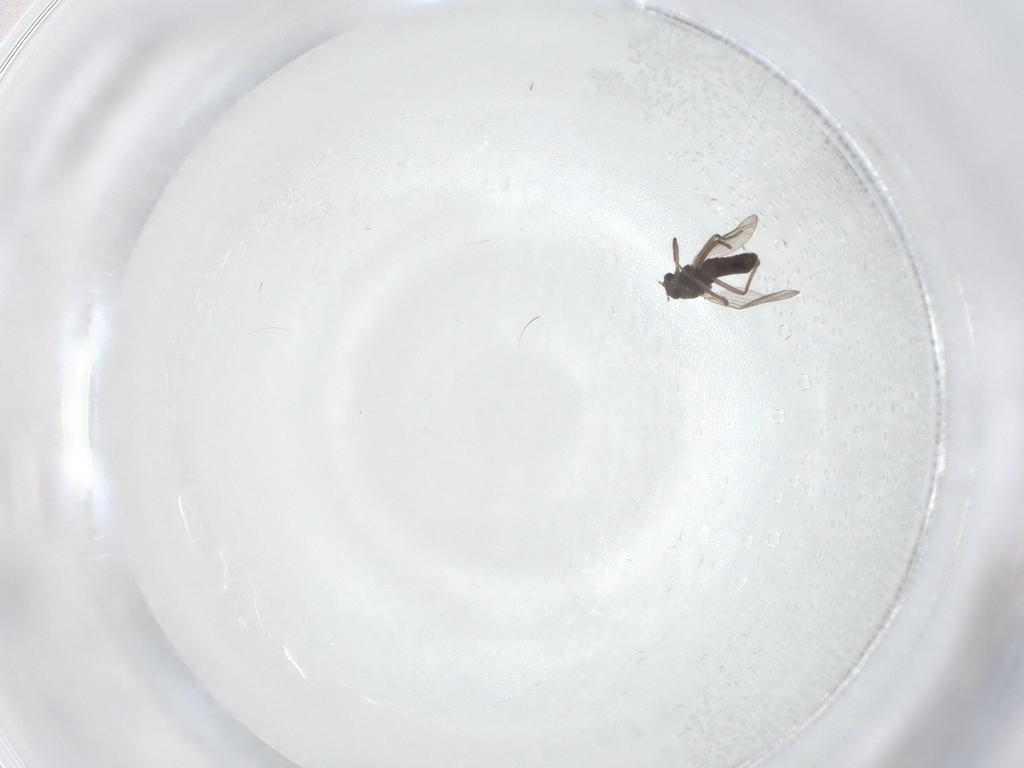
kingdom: Animalia
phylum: Arthropoda
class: Insecta
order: Diptera
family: Chironomidae
